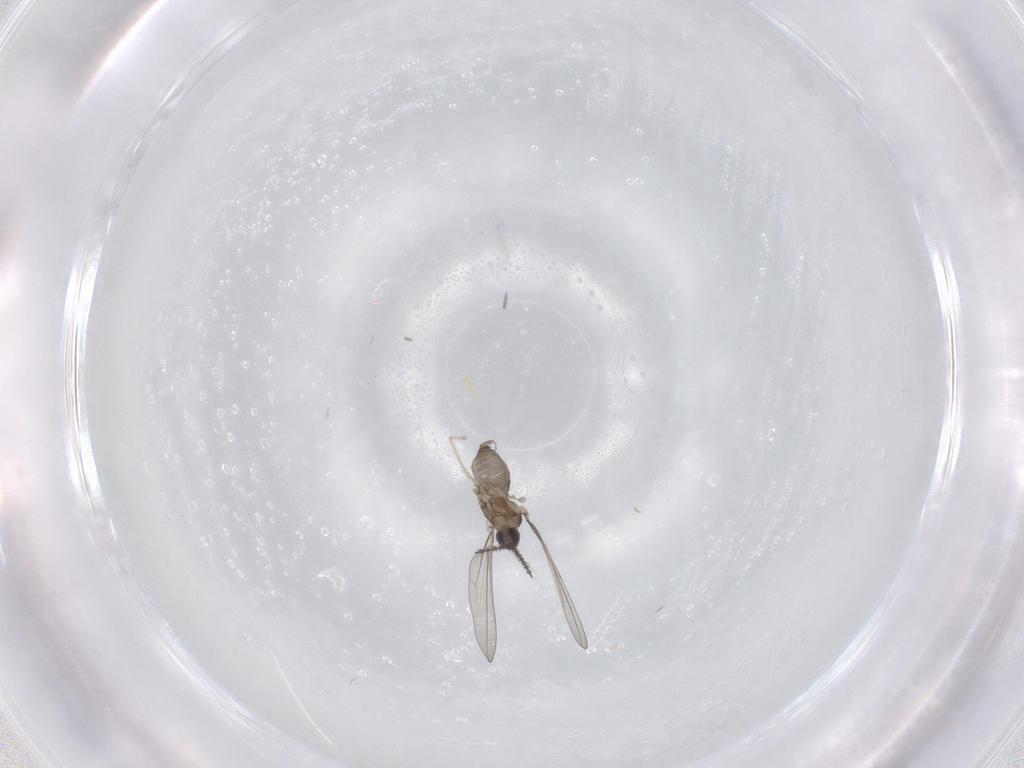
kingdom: Animalia
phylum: Arthropoda
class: Insecta
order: Diptera
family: Cecidomyiidae
